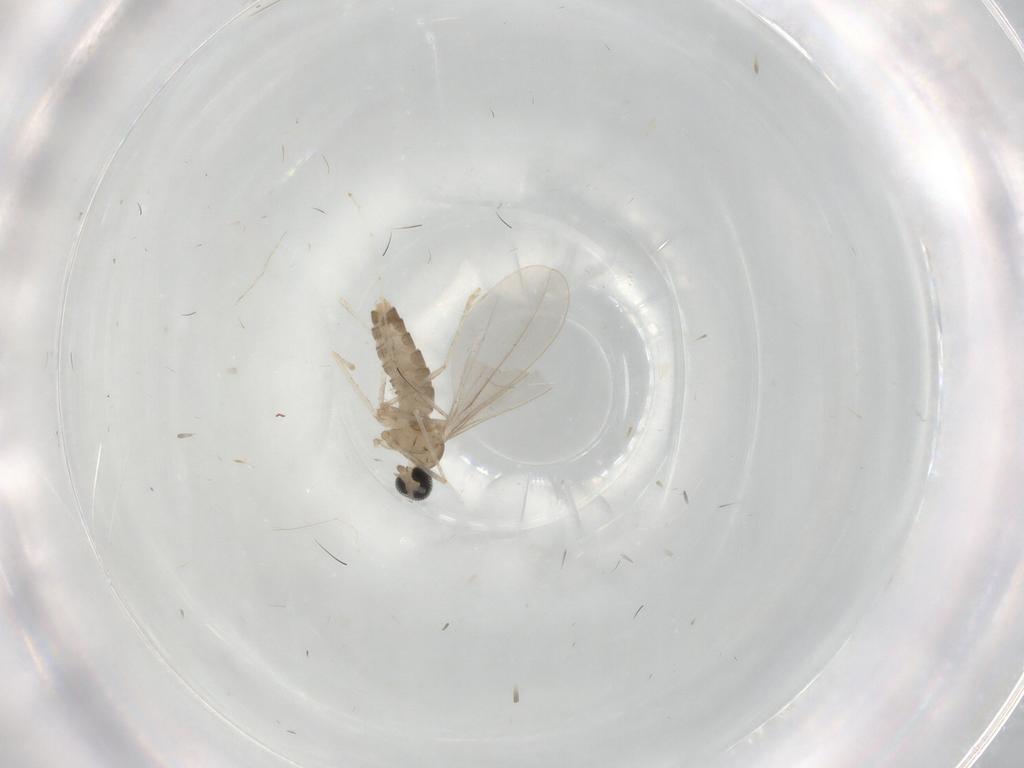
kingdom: Animalia
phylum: Arthropoda
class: Insecta
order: Diptera
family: Cecidomyiidae
